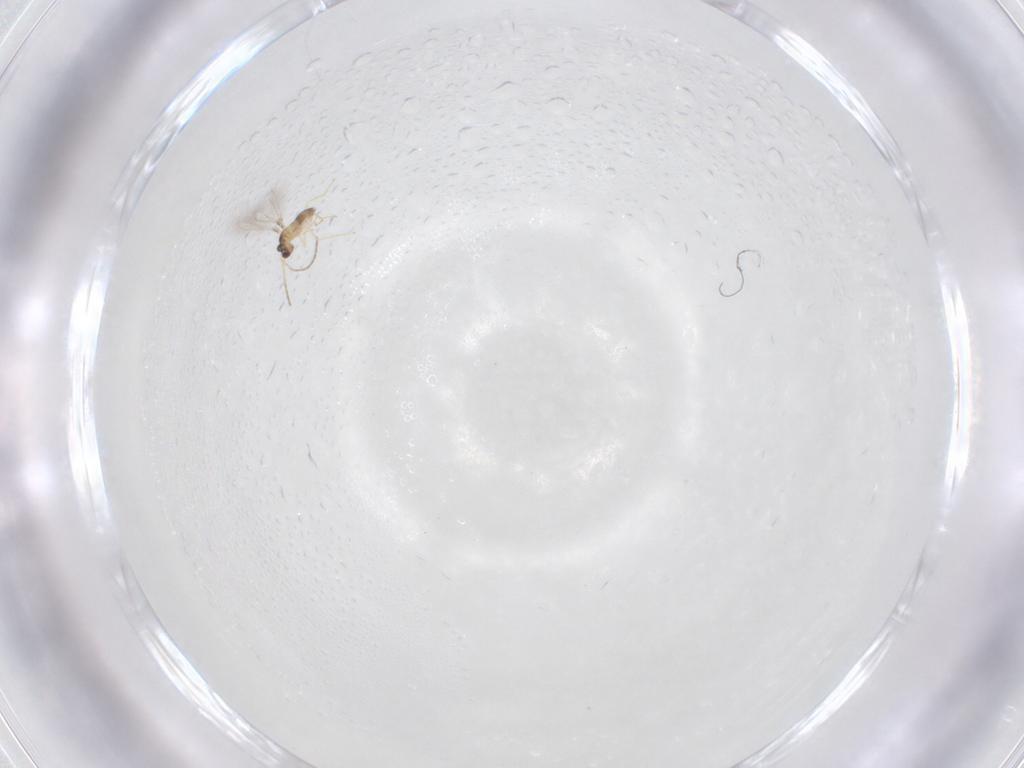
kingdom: Animalia
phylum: Arthropoda
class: Insecta
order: Hymenoptera
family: Mymaridae
